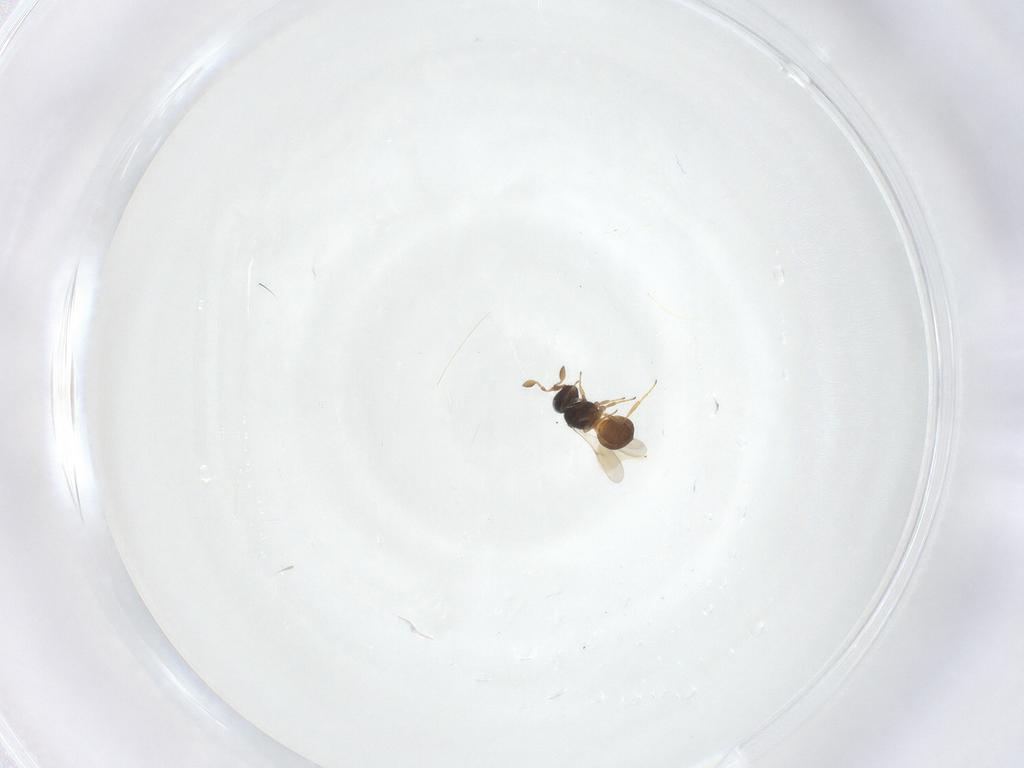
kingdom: Animalia
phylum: Arthropoda
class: Insecta
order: Hymenoptera
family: Scelionidae
